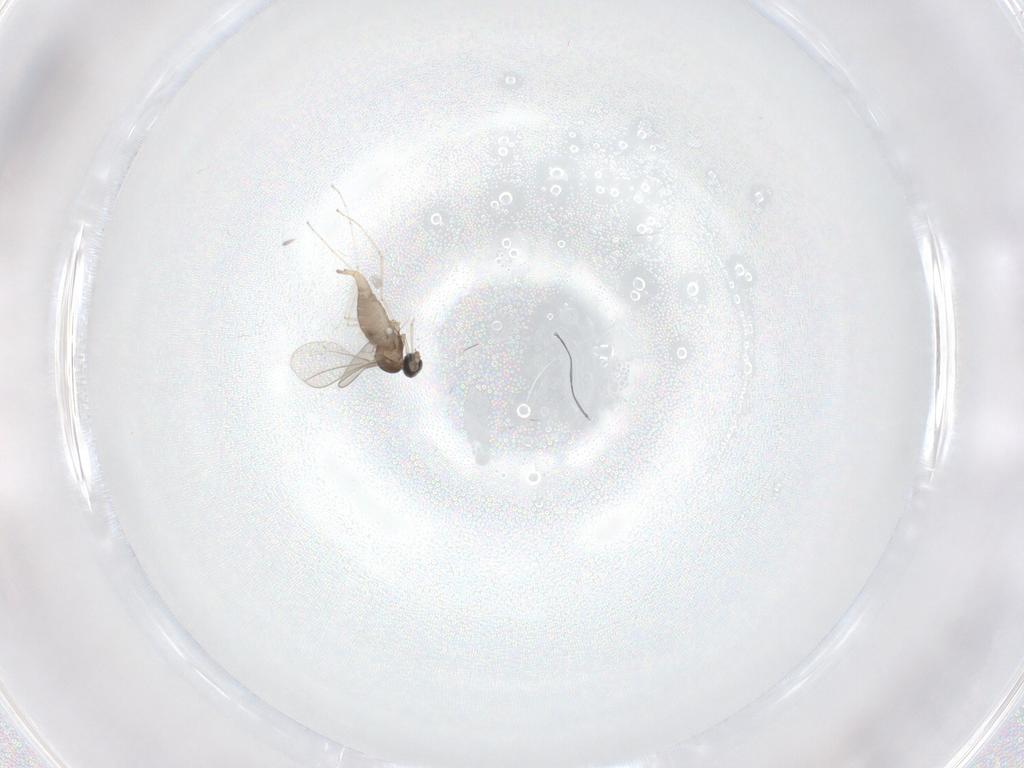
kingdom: Animalia
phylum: Arthropoda
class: Insecta
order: Diptera
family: Cecidomyiidae
